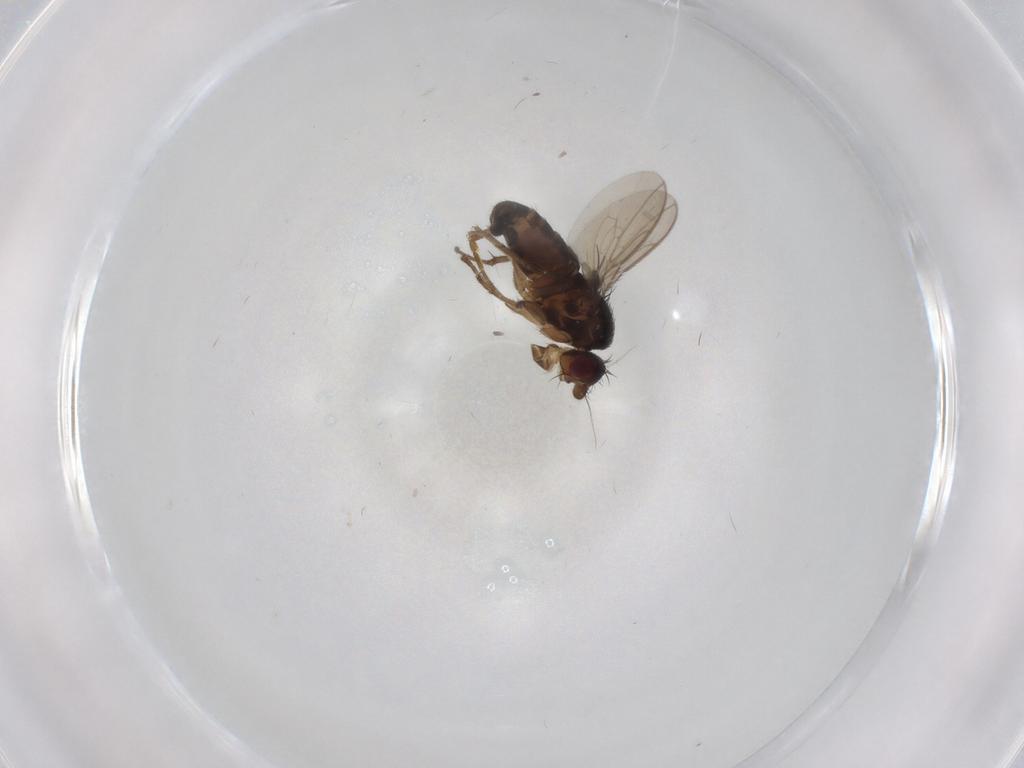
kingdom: Animalia
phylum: Arthropoda
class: Insecta
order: Diptera
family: Sphaeroceridae
